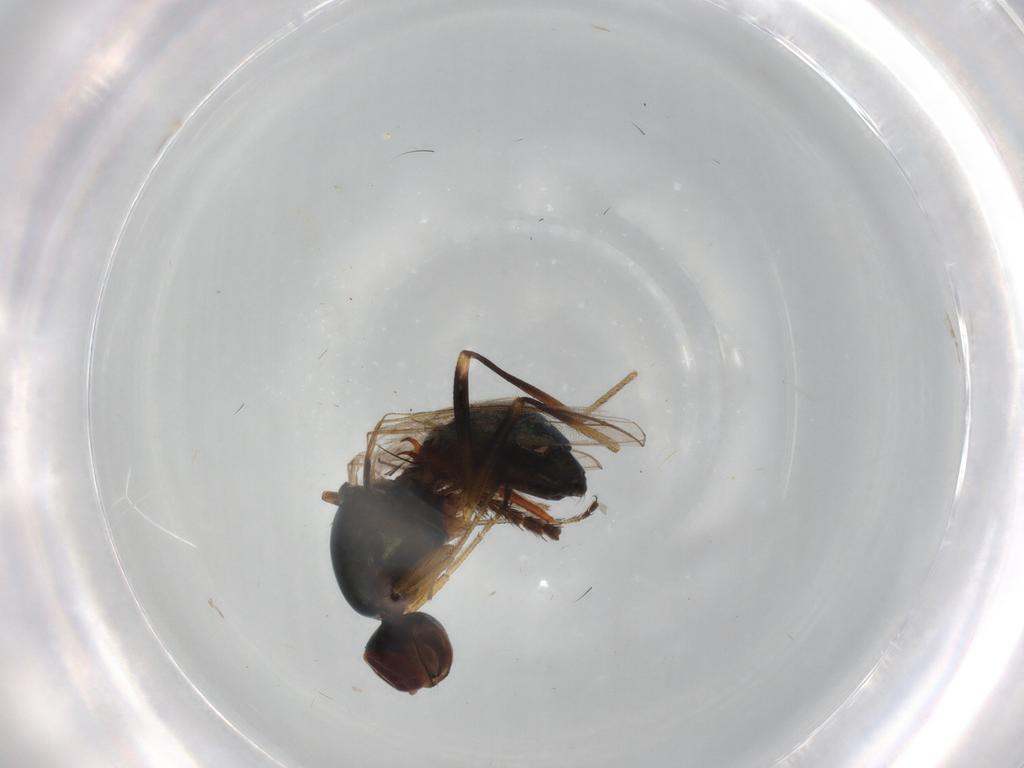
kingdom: Animalia
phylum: Arthropoda
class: Insecta
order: Diptera
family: Sepsidae
